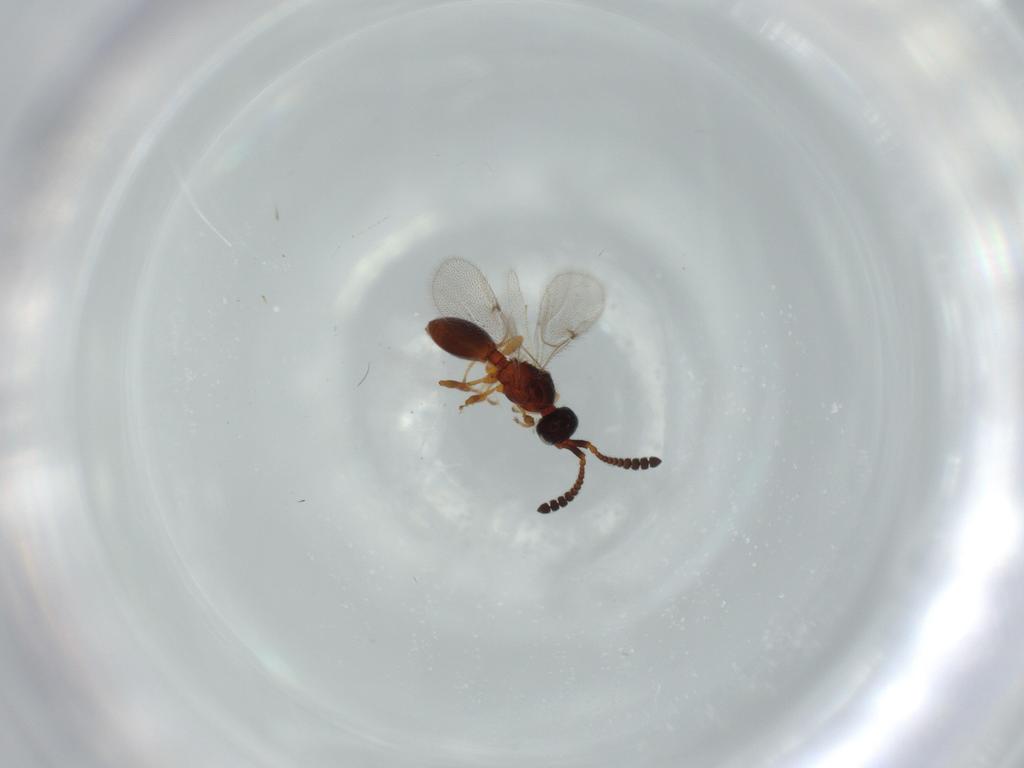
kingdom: Animalia
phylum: Arthropoda
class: Insecta
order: Hymenoptera
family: Diapriidae
